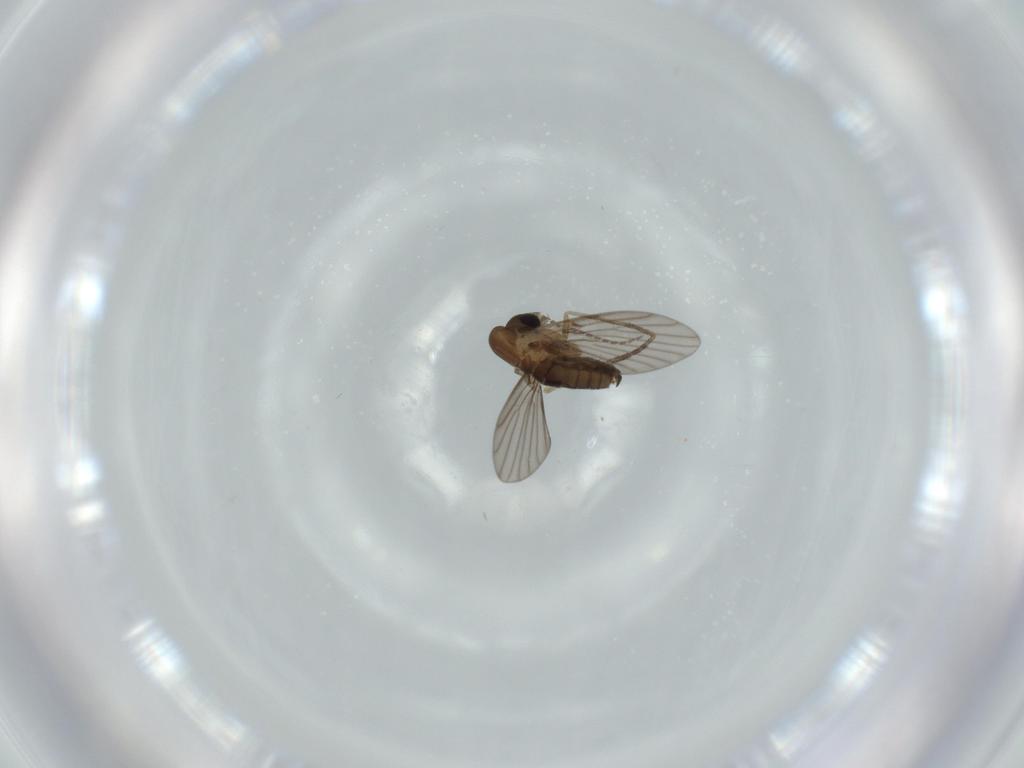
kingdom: Animalia
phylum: Arthropoda
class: Insecta
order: Diptera
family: Psychodidae
